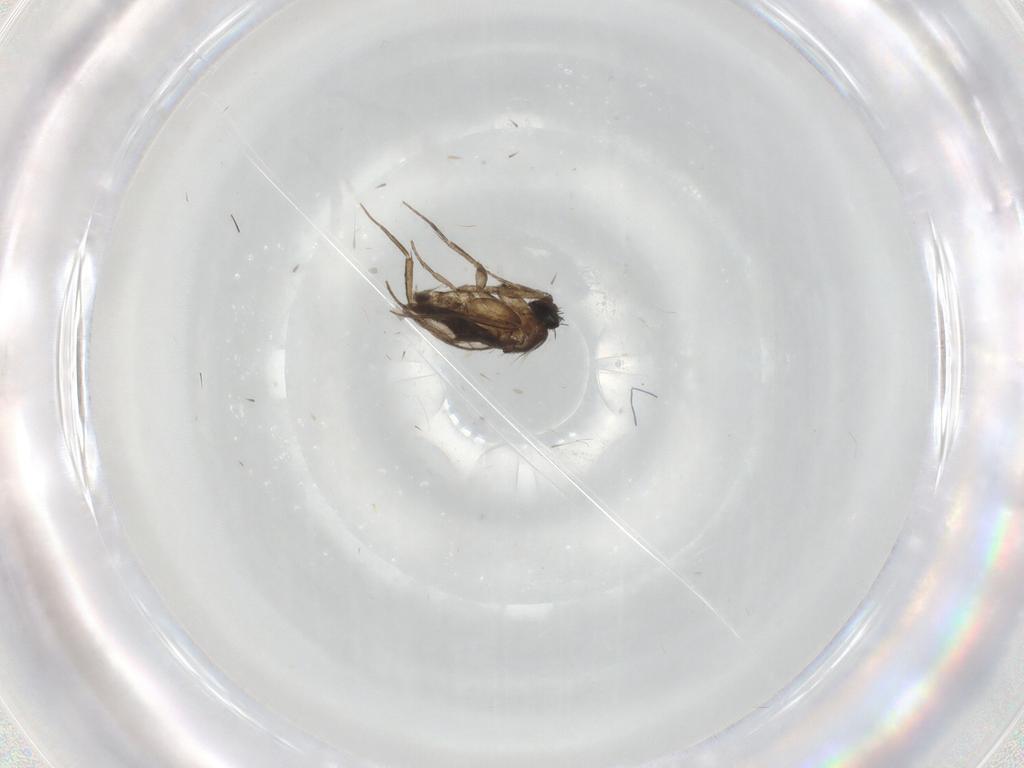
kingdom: Animalia
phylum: Arthropoda
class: Insecta
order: Diptera
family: Phoridae
